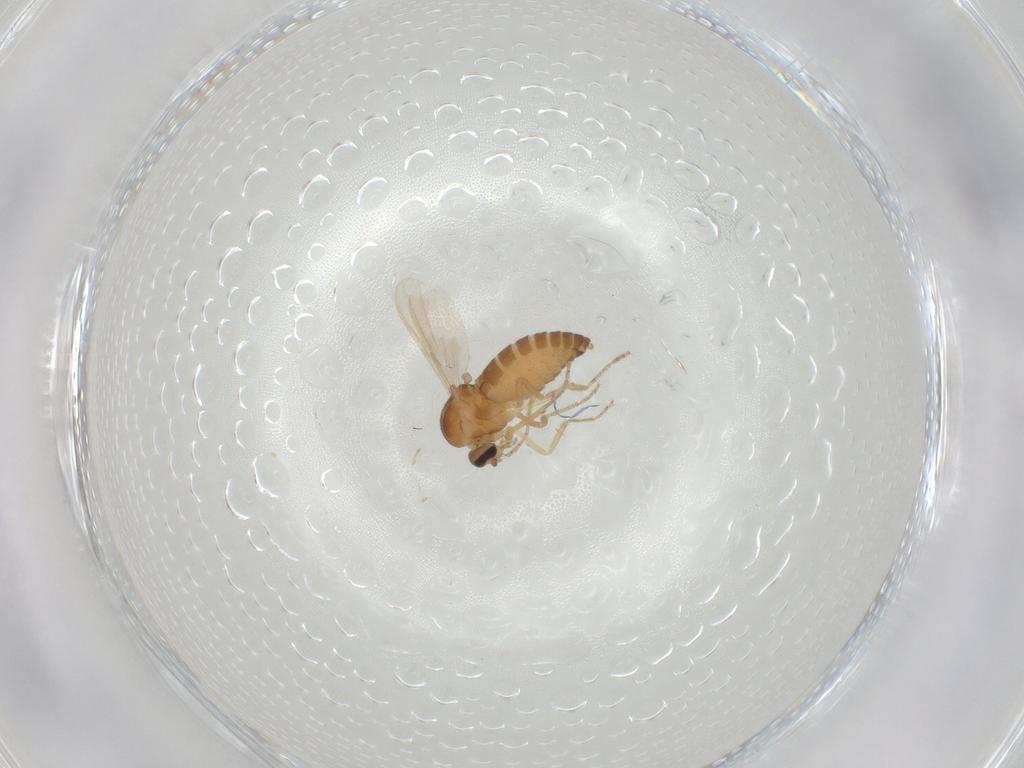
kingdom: Animalia
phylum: Arthropoda
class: Insecta
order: Diptera
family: Ceratopogonidae
